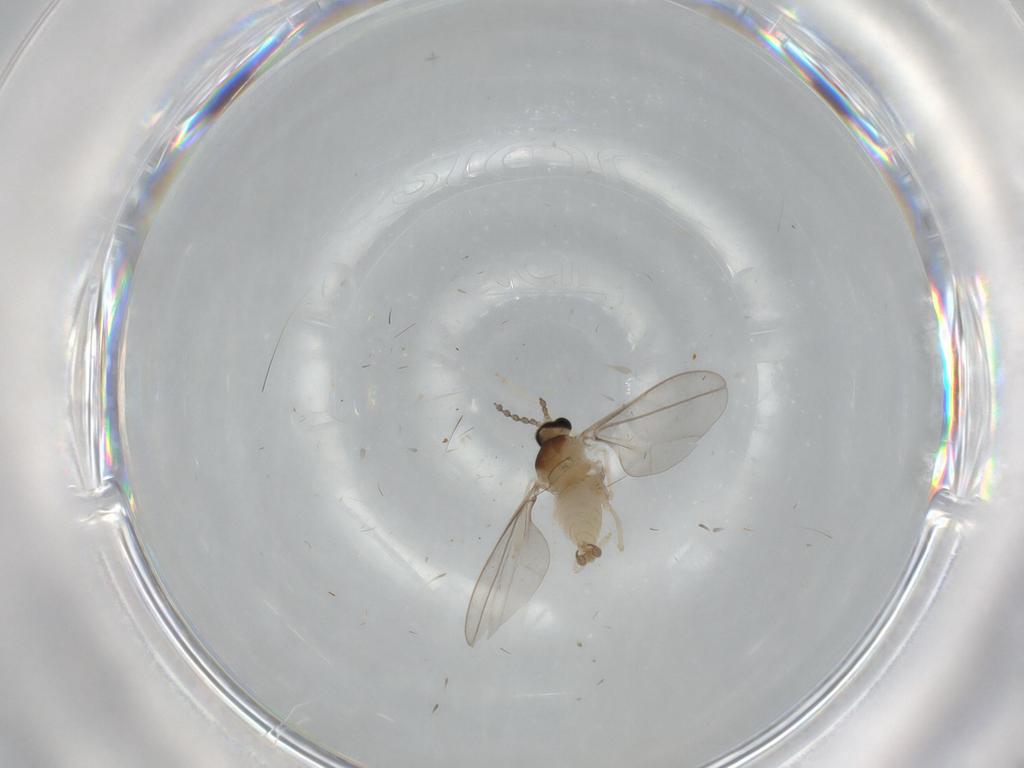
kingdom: Animalia
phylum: Arthropoda
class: Insecta
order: Diptera
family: Cecidomyiidae
